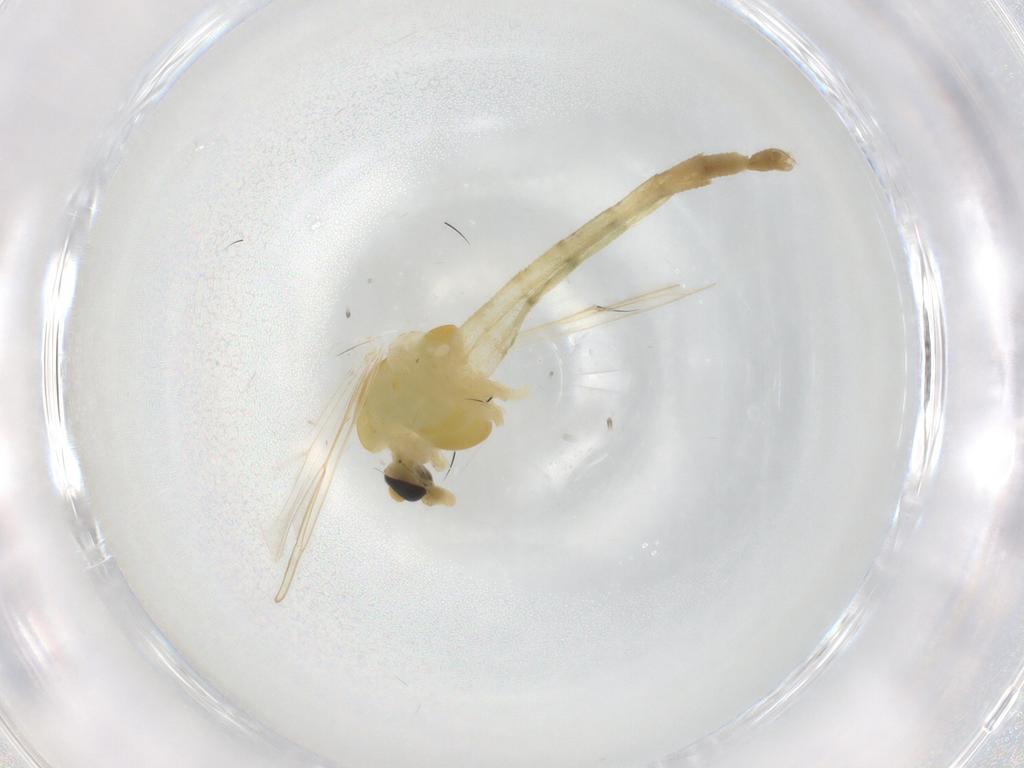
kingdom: Animalia
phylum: Arthropoda
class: Insecta
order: Diptera
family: Chironomidae
